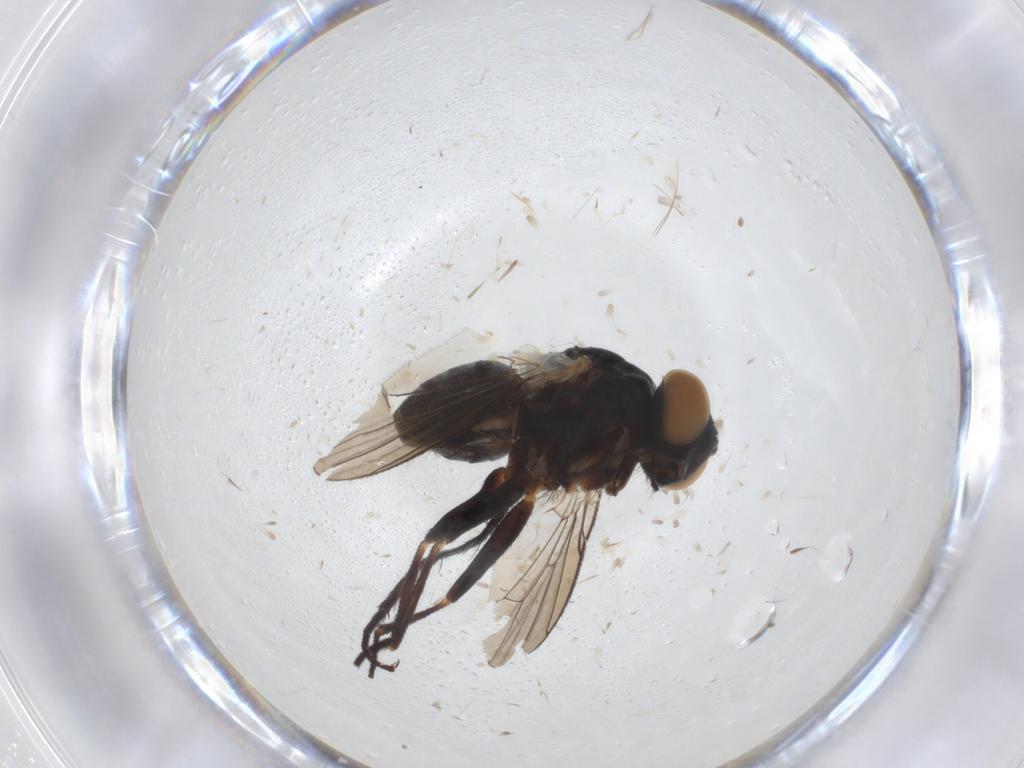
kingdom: Animalia
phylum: Arthropoda
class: Insecta
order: Diptera
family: Muscidae
